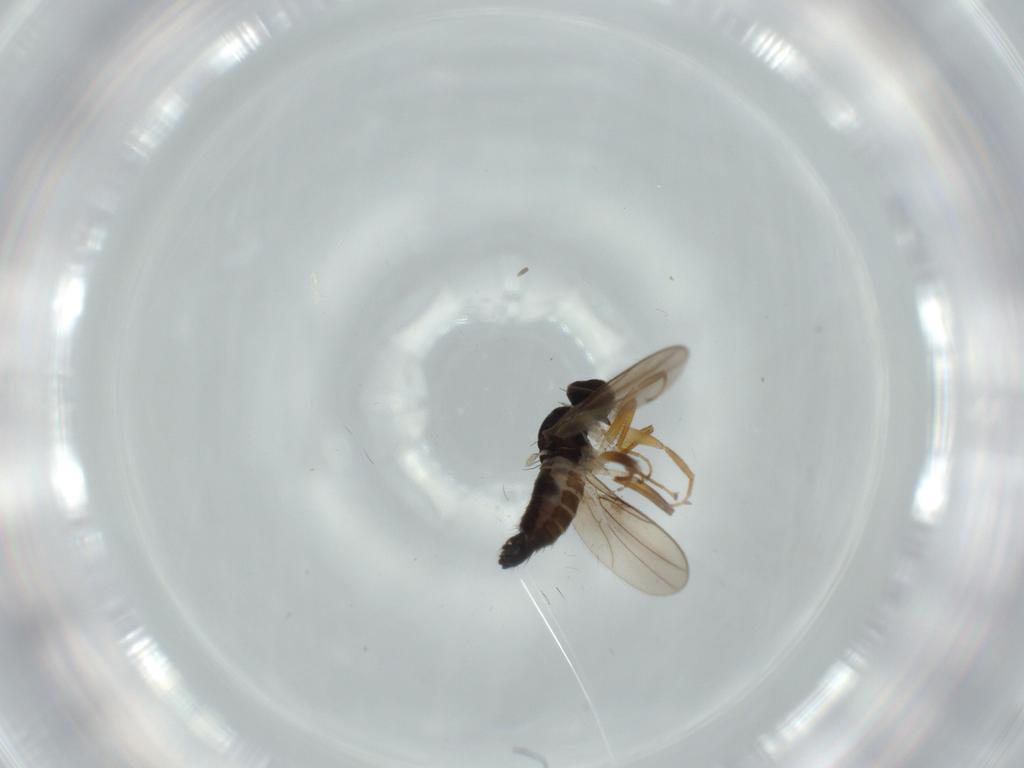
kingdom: Animalia
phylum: Arthropoda
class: Insecta
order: Diptera
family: Hybotidae
